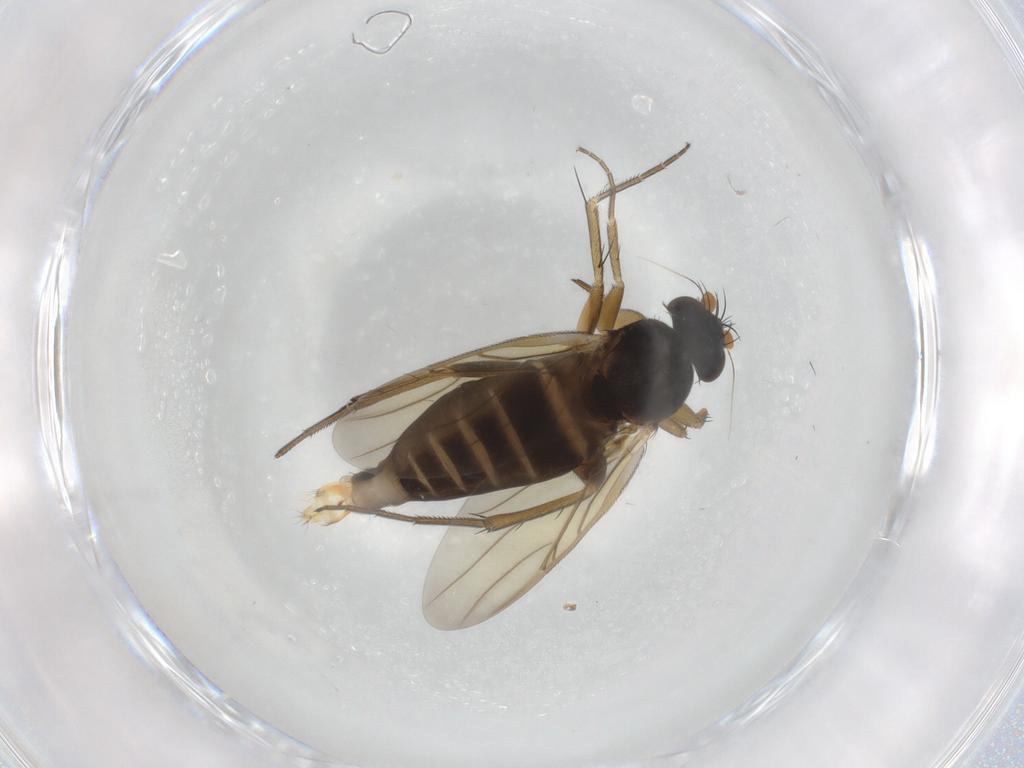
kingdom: Animalia
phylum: Arthropoda
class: Insecta
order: Diptera
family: Phoridae
